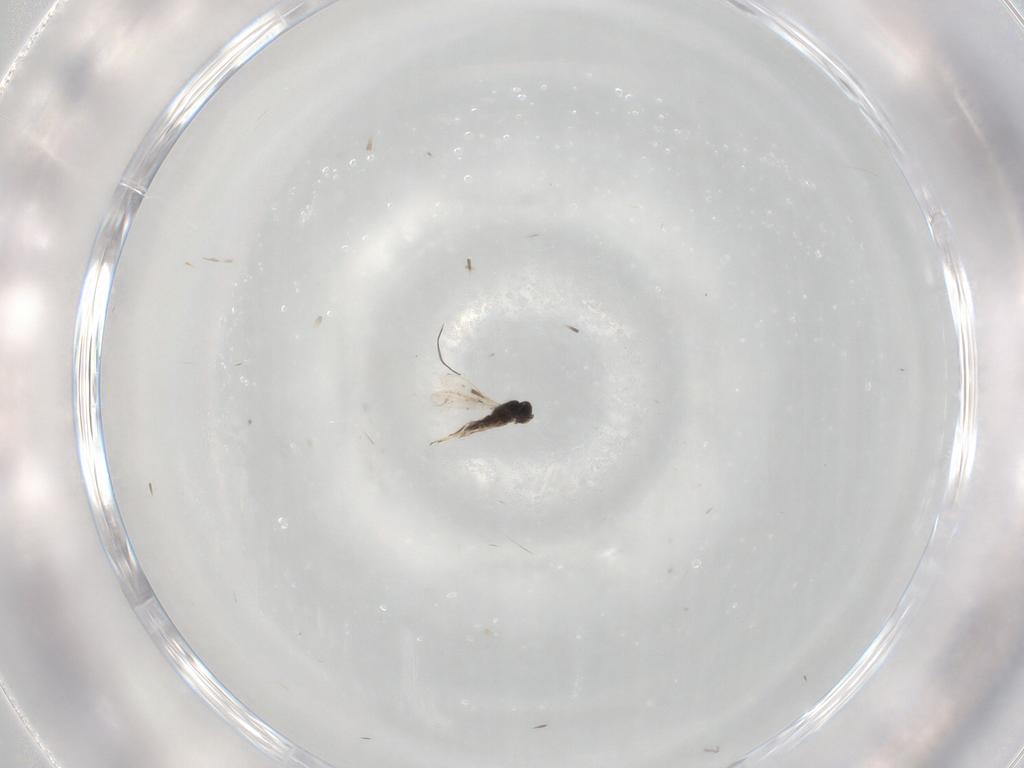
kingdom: Animalia
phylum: Arthropoda
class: Insecta
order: Hymenoptera
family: Scelionidae
